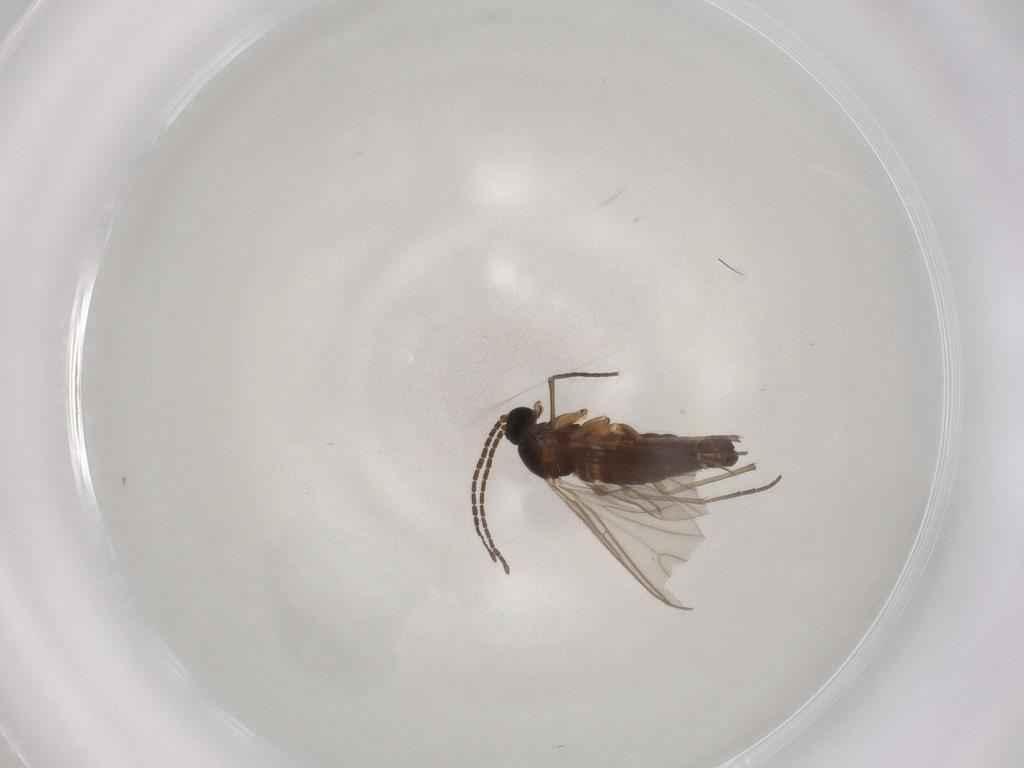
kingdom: Animalia
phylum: Arthropoda
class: Insecta
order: Diptera
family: Sciaridae
